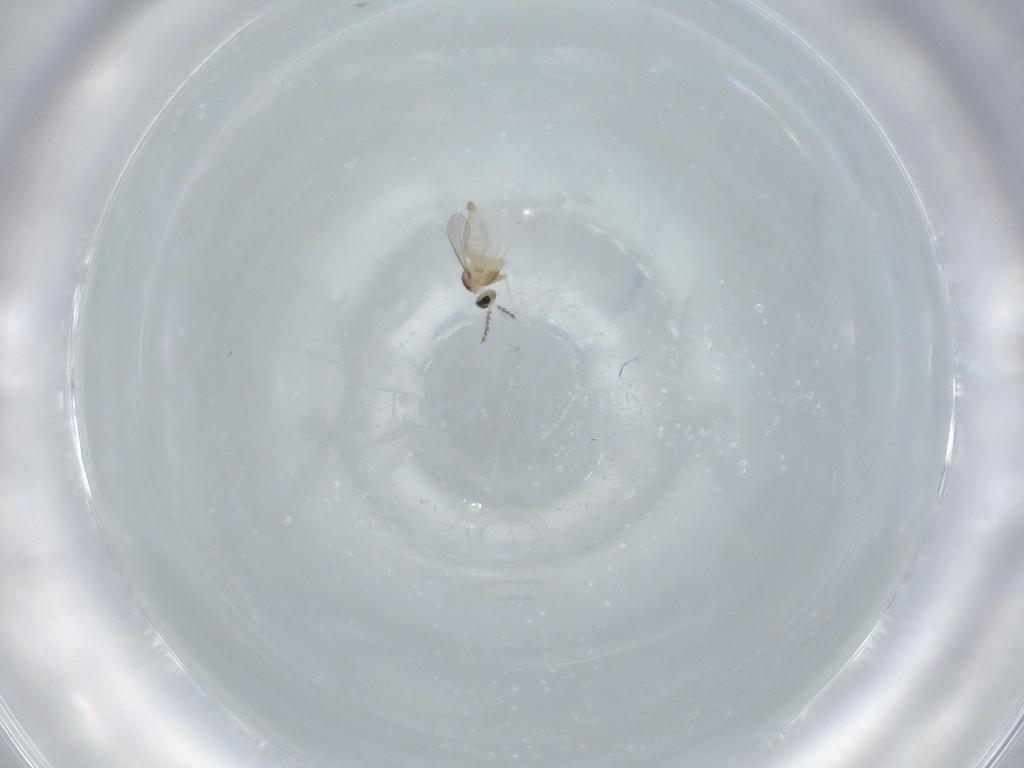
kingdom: Animalia
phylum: Arthropoda
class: Insecta
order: Diptera
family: Cecidomyiidae
